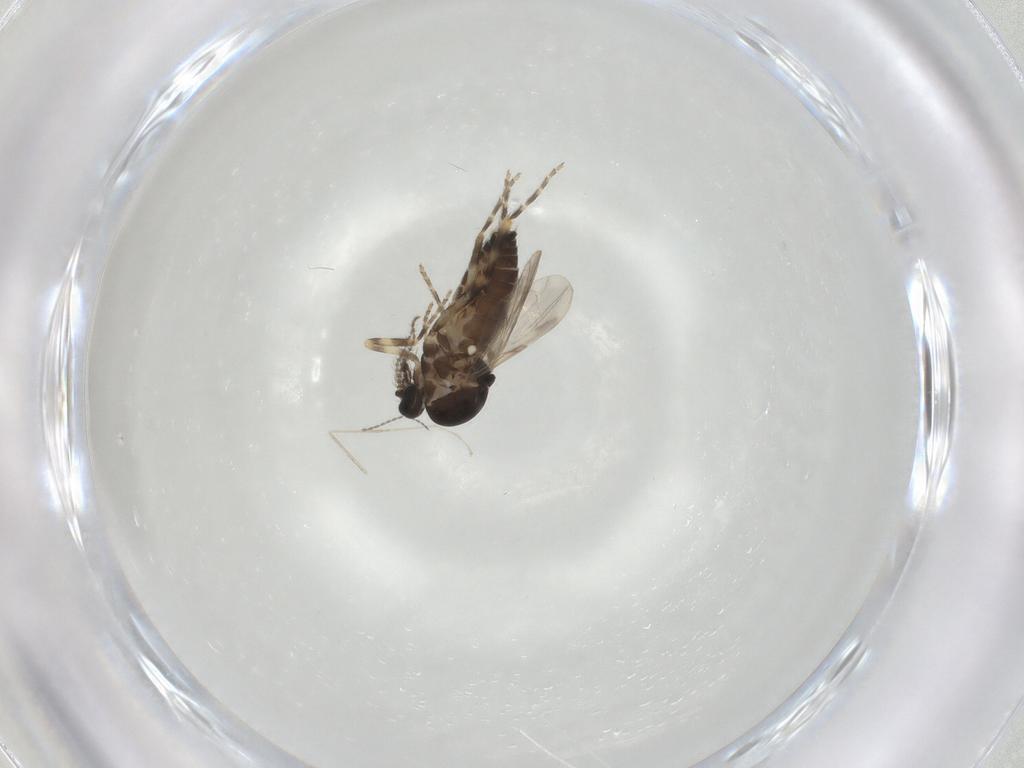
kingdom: Animalia
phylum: Arthropoda
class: Insecta
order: Diptera
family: Ceratopogonidae
